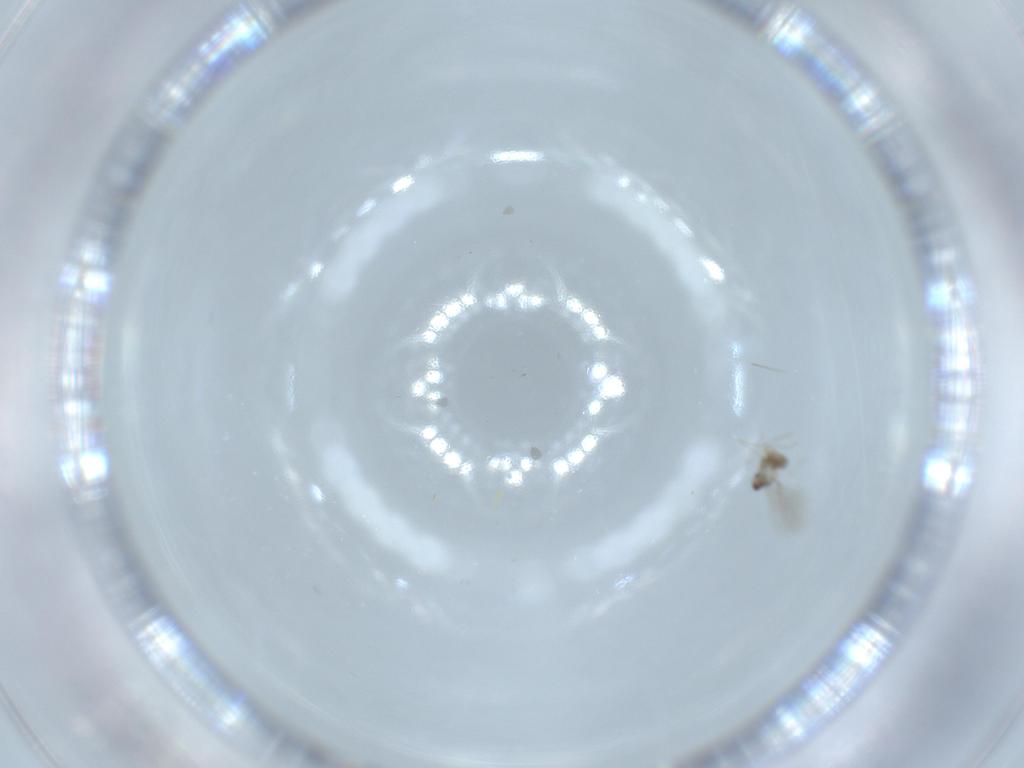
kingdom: Animalia
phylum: Arthropoda
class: Insecta
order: Diptera
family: Cecidomyiidae
